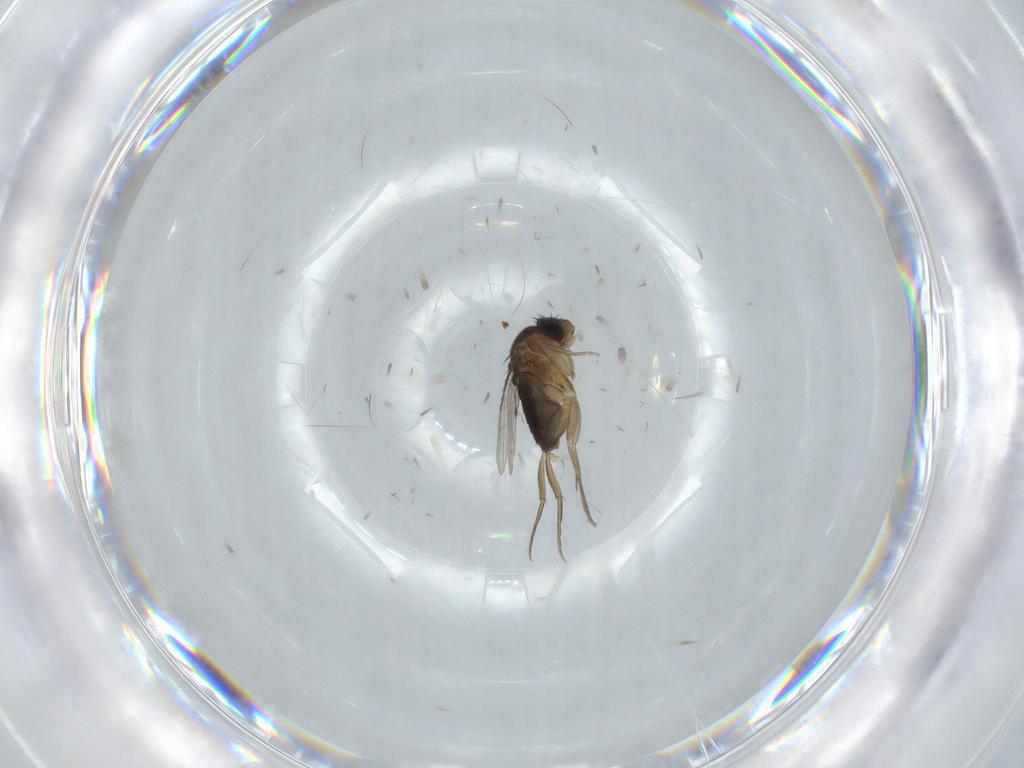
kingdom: Animalia
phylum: Arthropoda
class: Insecta
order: Diptera
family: Phoridae
